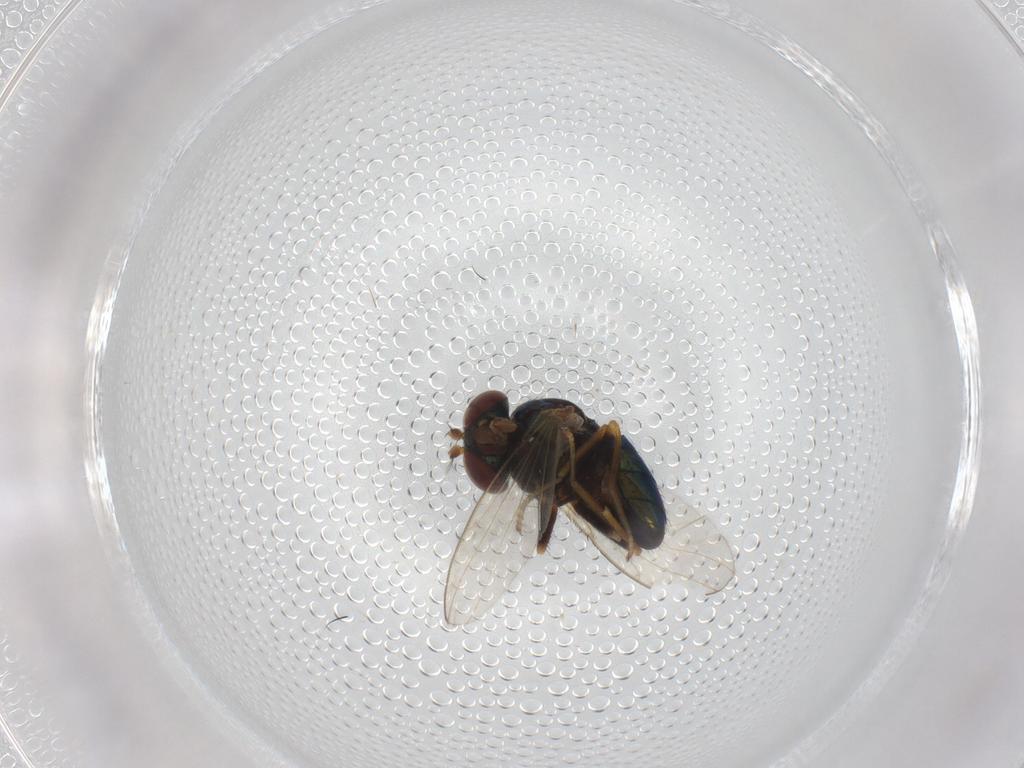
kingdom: Animalia
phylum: Arthropoda
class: Insecta
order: Diptera
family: Ephydridae
